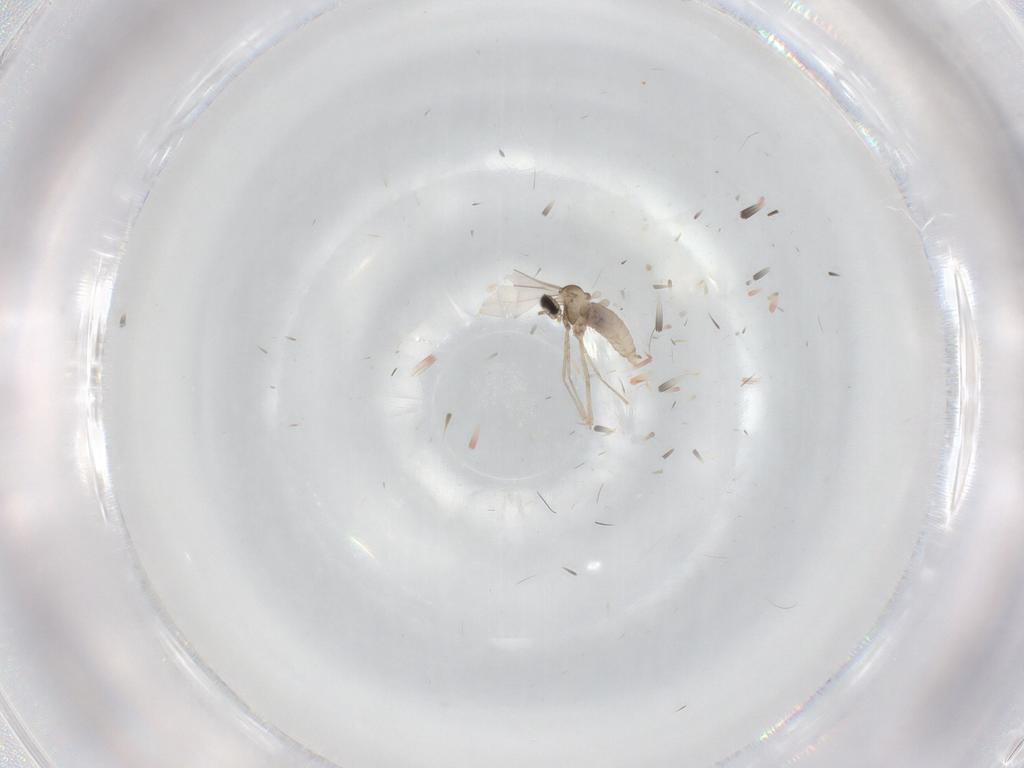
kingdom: Animalia
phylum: Arthropoda
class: Insecta
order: Diptera
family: Cecidomyiidae
